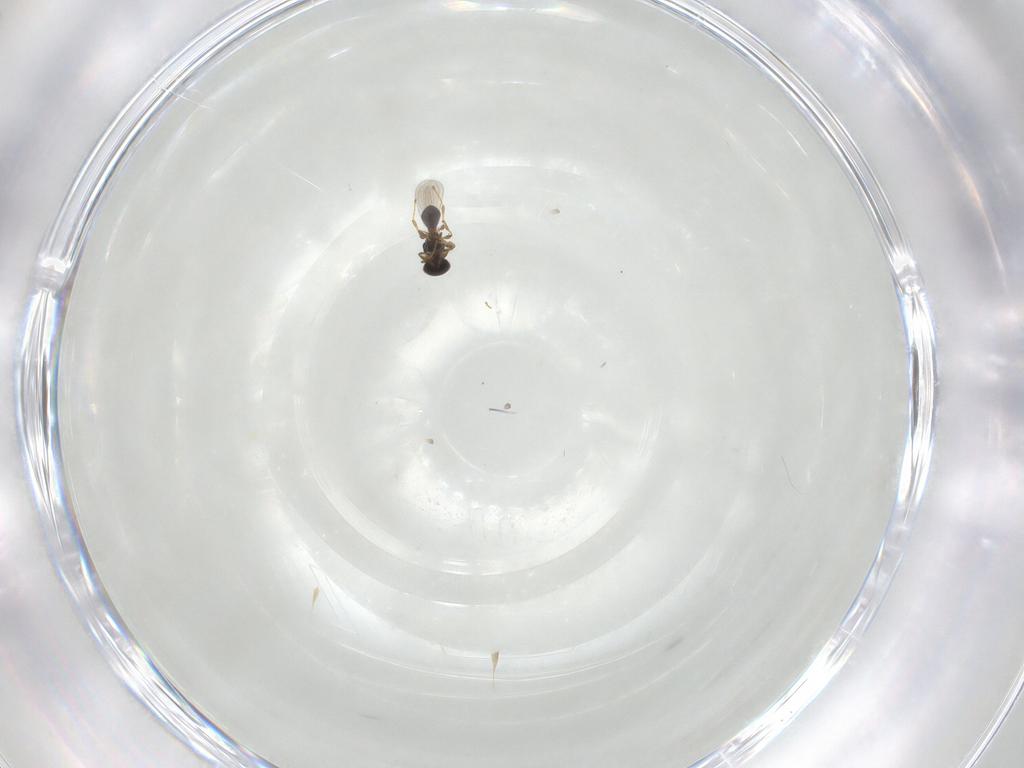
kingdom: Animalia
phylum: Arthropoda
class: Insecta
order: Hymenoptera
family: Platygastridae
